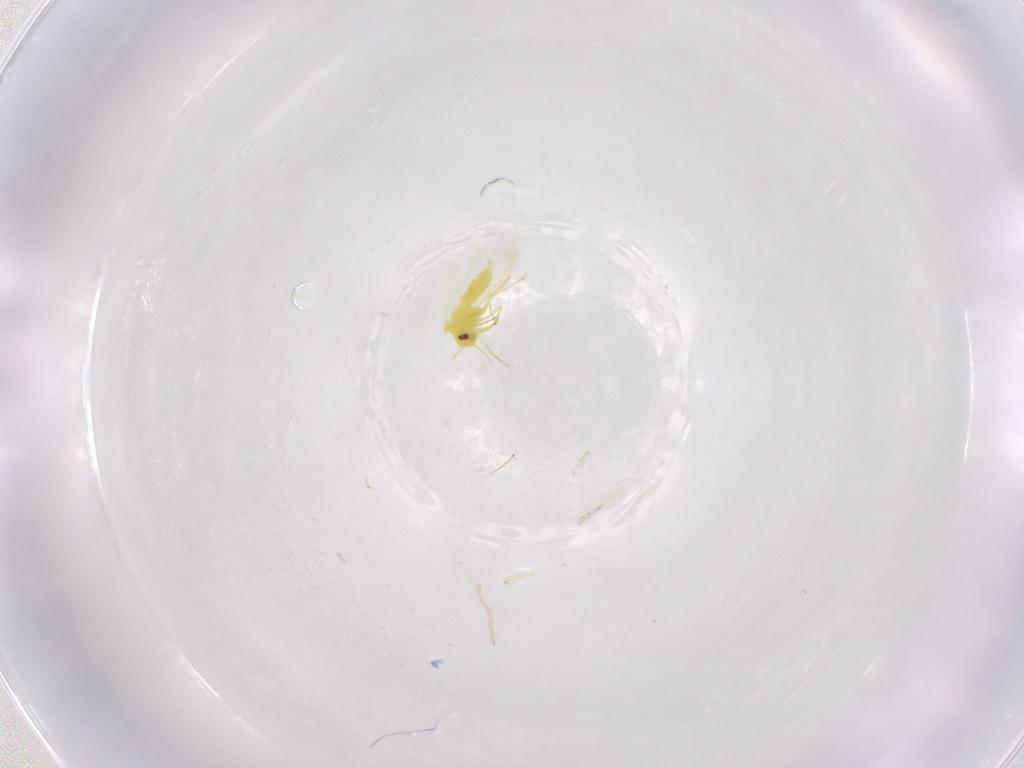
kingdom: Animalia
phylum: Arthropoda
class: Insecta
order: Hemiptera
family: Aleyrodidae
